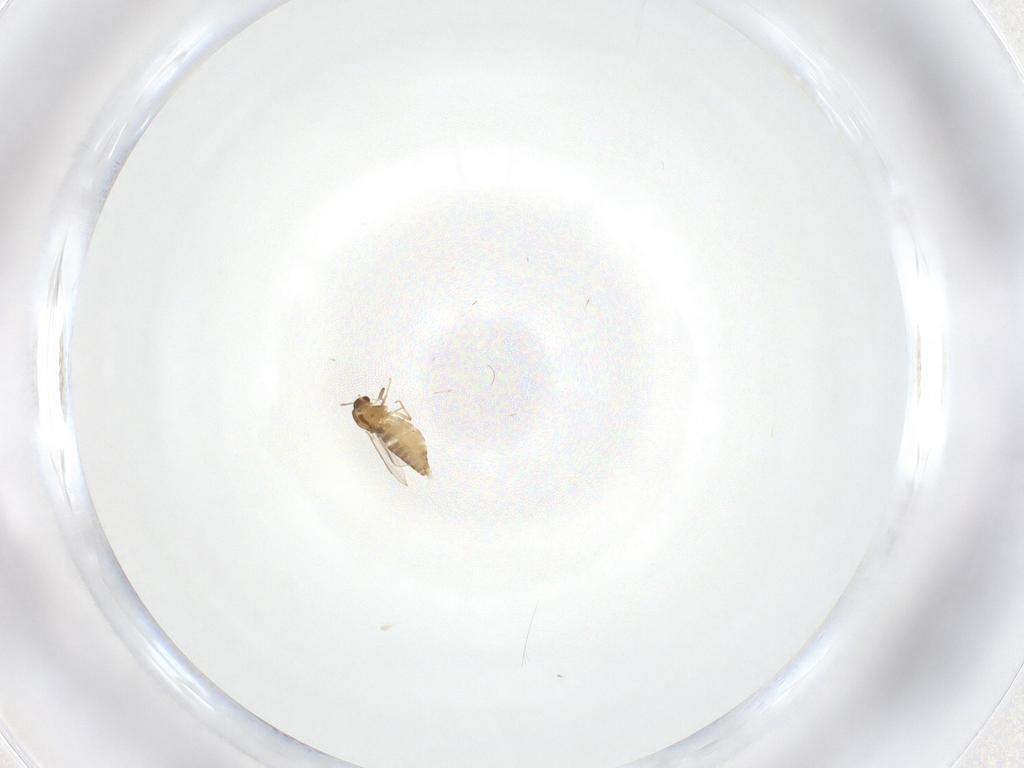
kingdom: Animalia
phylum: Arthropoda
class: Insecta
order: Diptera
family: Chironomidae
